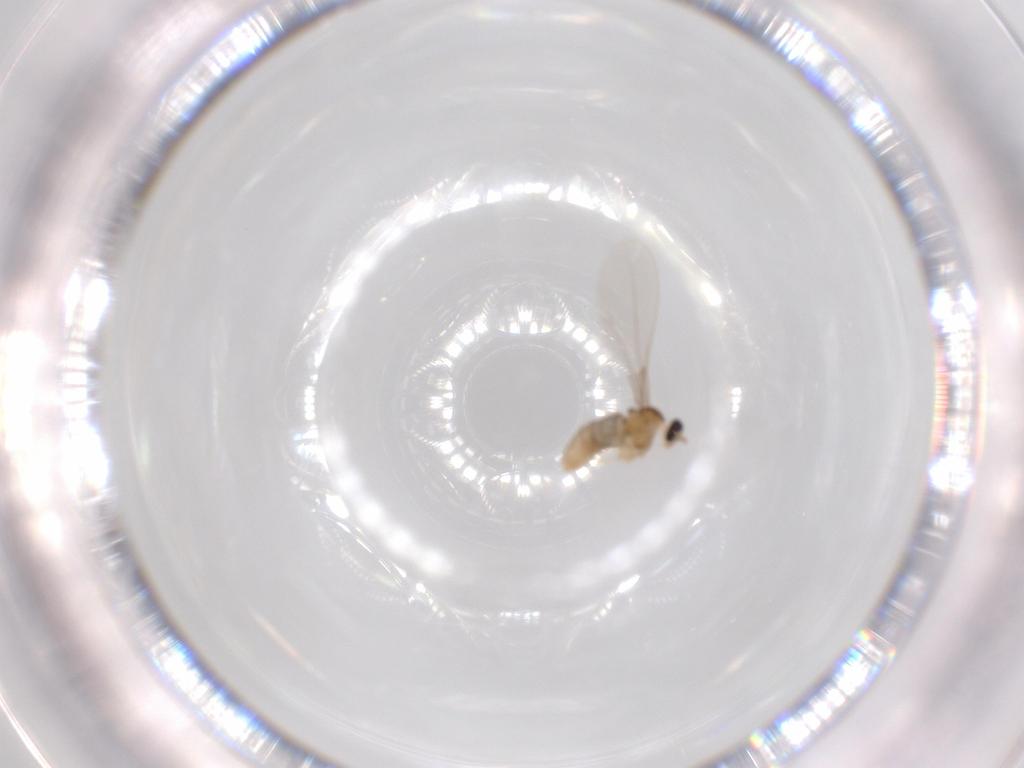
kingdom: Animalia
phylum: Arthropoda
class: Insecta
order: Diptera
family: Cecidomyiidae
